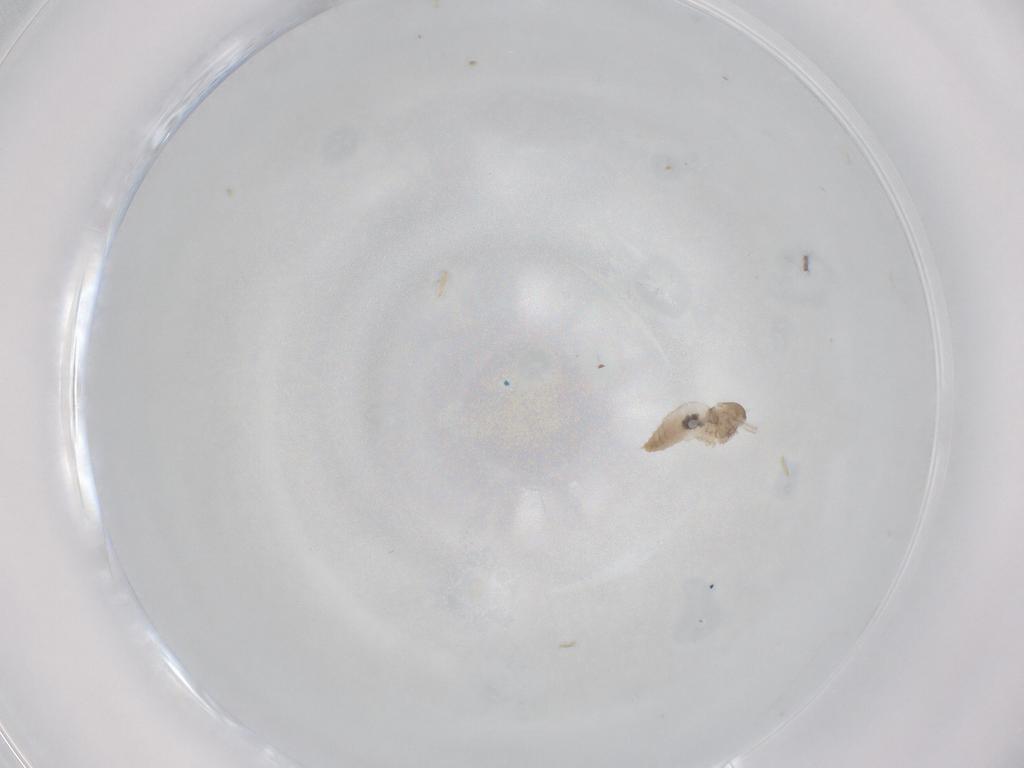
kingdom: Animalia
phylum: Arthropoda
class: Insecta
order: Diptera
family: Cecidomyiidae
